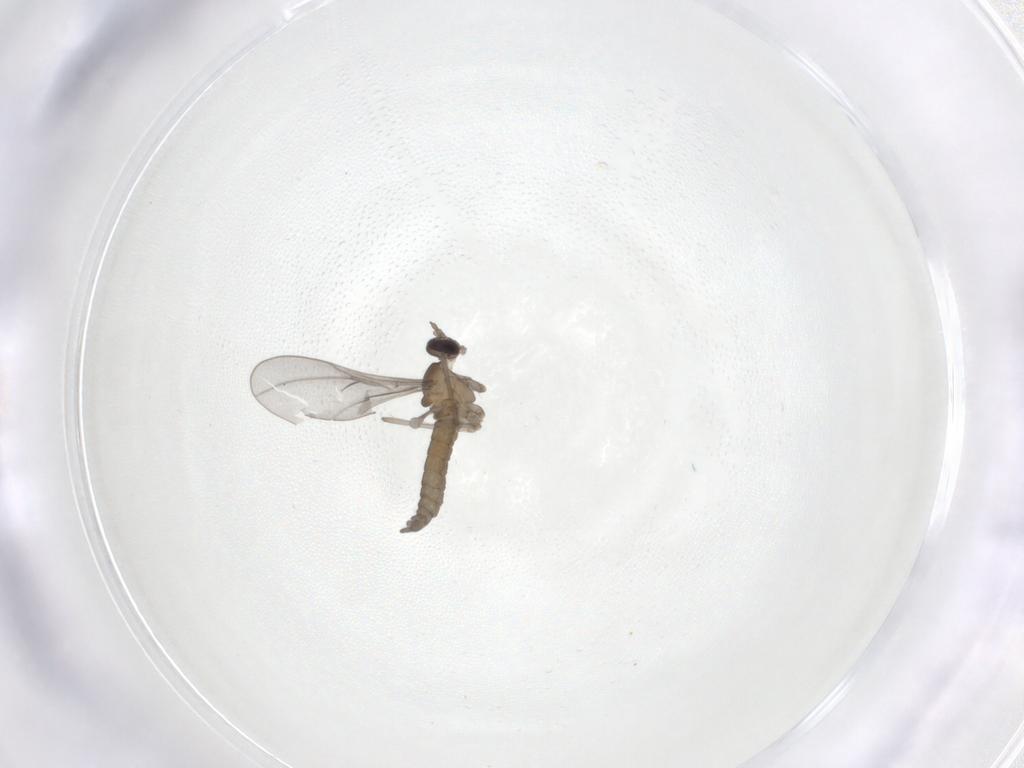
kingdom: Animalia
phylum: Arthropoda
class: Insecta
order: Diptera
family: Cecidomyiidae
